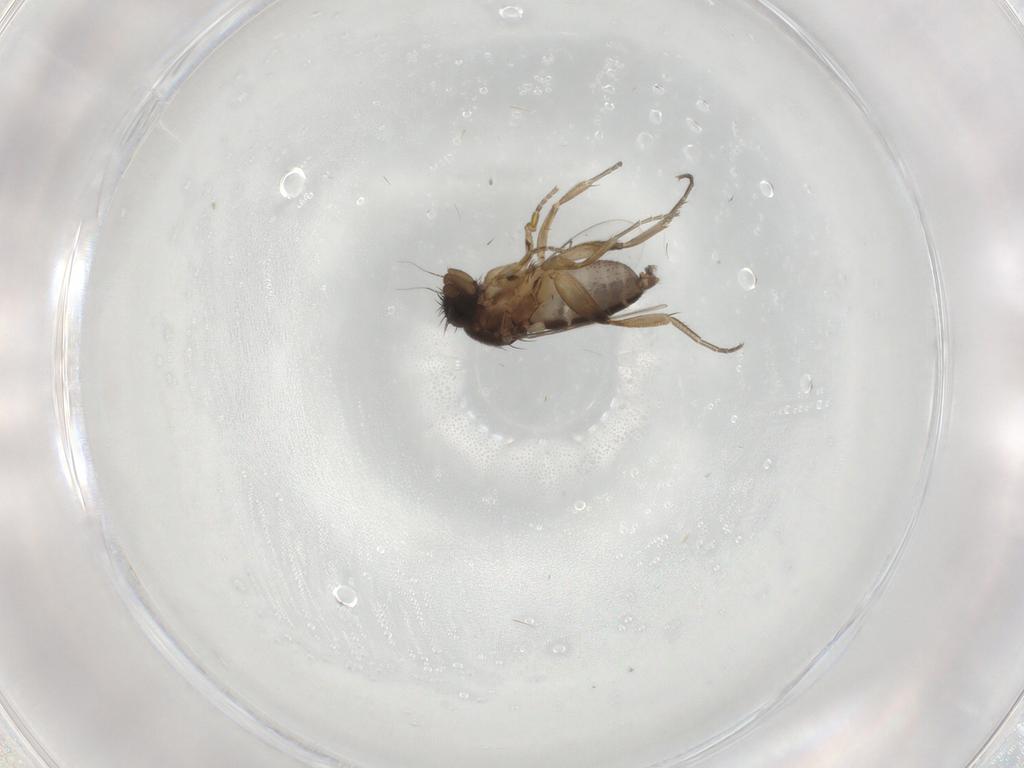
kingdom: Animalia
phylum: Arthropoda
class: Insecta
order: Diptera
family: Phoridae
